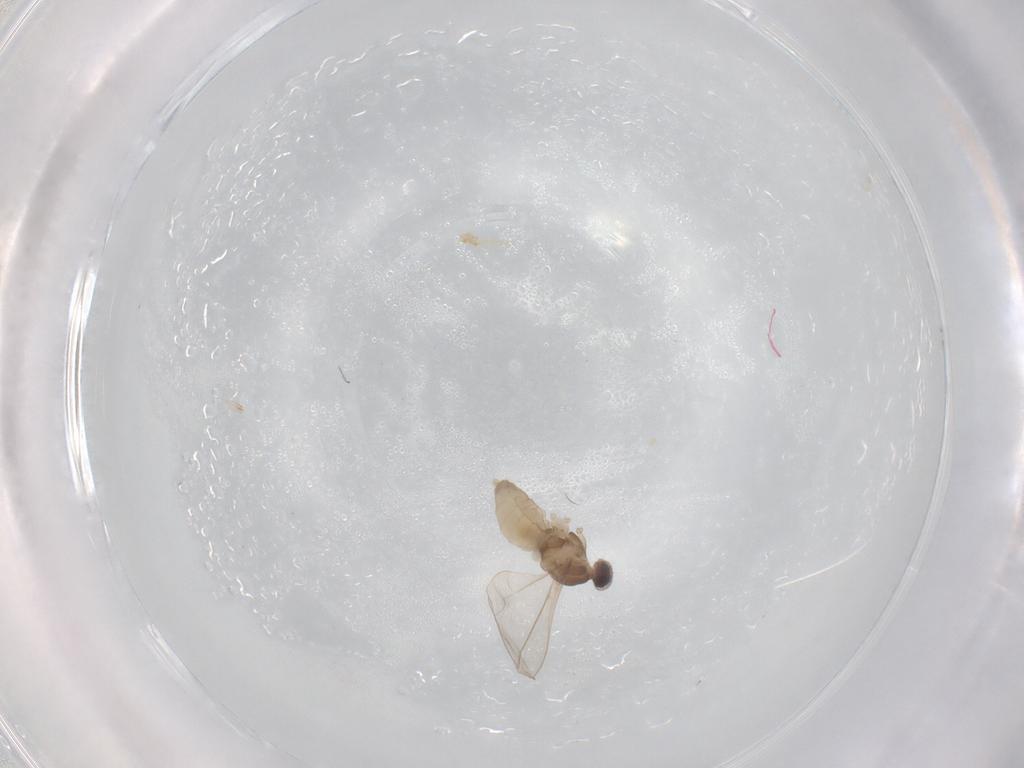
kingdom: Animalia
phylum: Arthropoda
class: Insecta
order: Diptera
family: Cecidomyiidae
